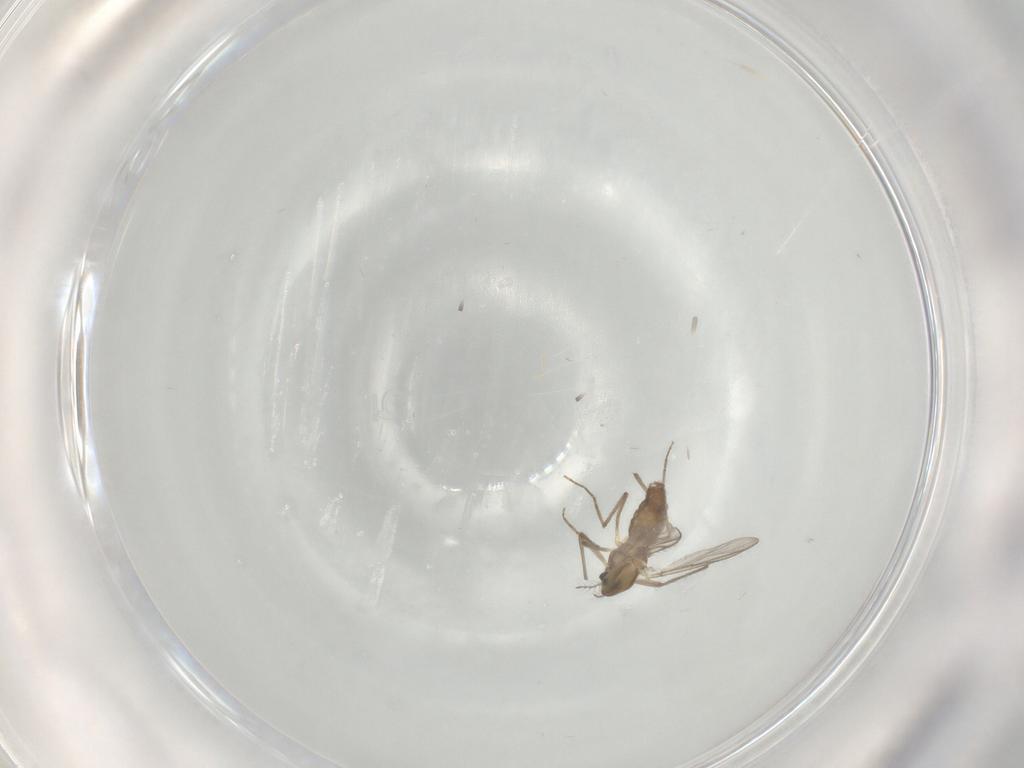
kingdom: Animalia
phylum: Arthropoda
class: Insecta
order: Diptera
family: Chironomidae
